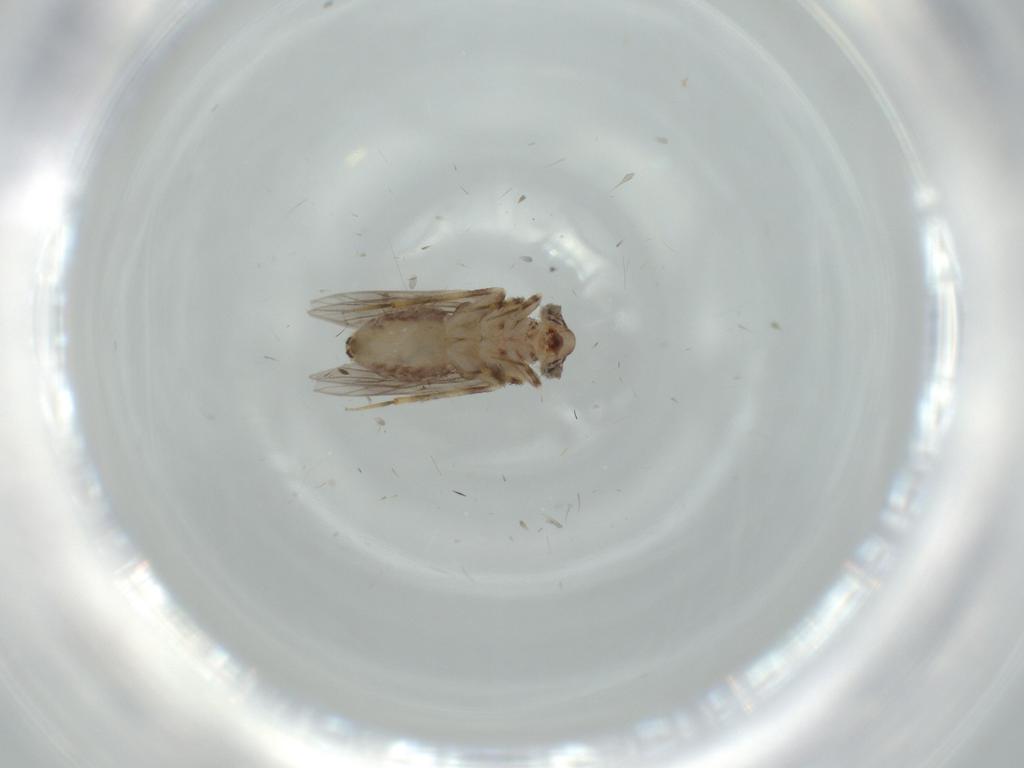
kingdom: Animalia
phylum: Arthropoda
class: Insecta
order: Psocodea
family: Lepidopsocidae
